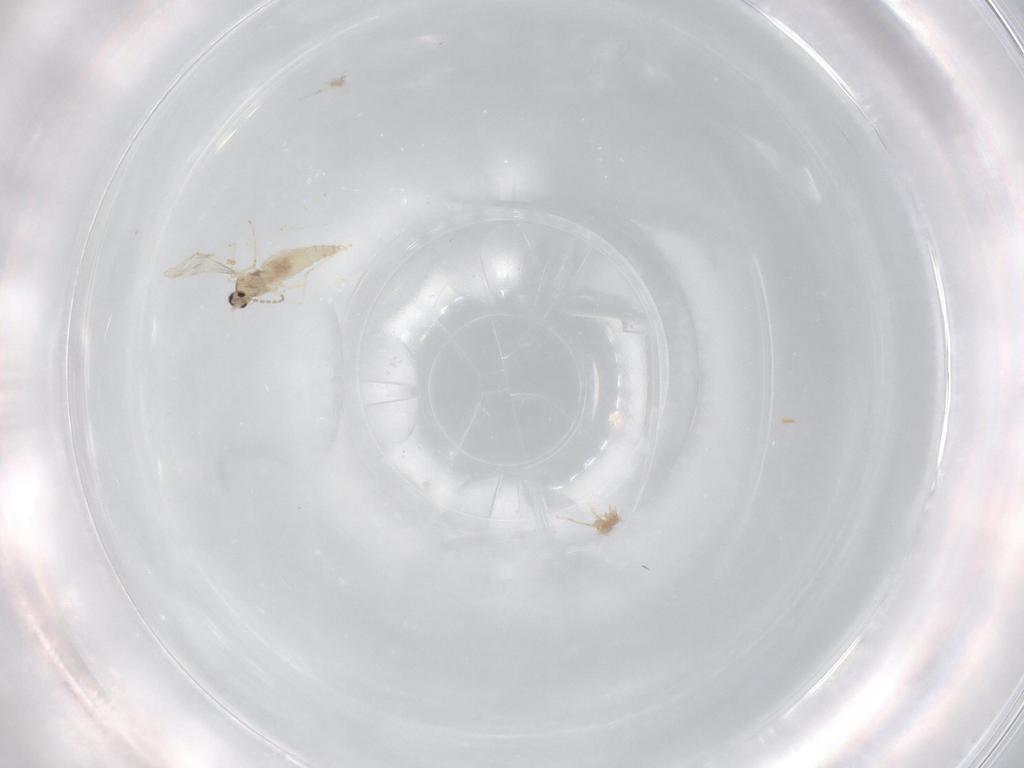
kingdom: Animalia
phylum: Arthropoda
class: Insecta
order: Diptera
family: Cecidomyiidae
